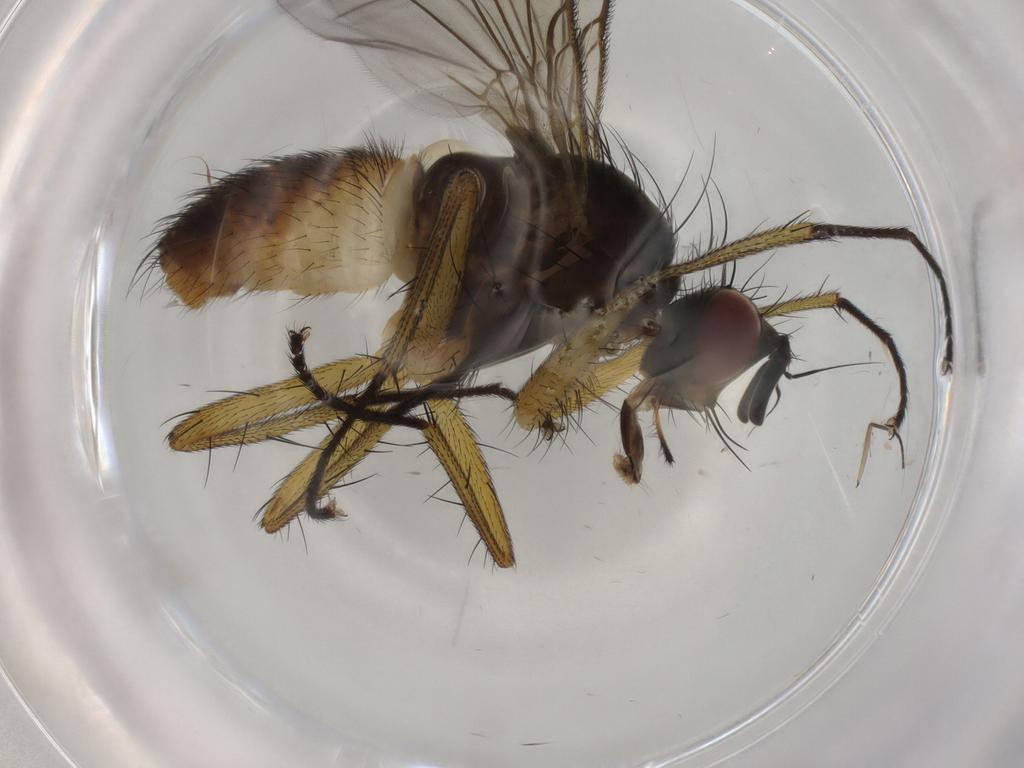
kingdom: Animalia
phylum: Arthropoda
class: Insecta
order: Diptera
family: Muscidae
